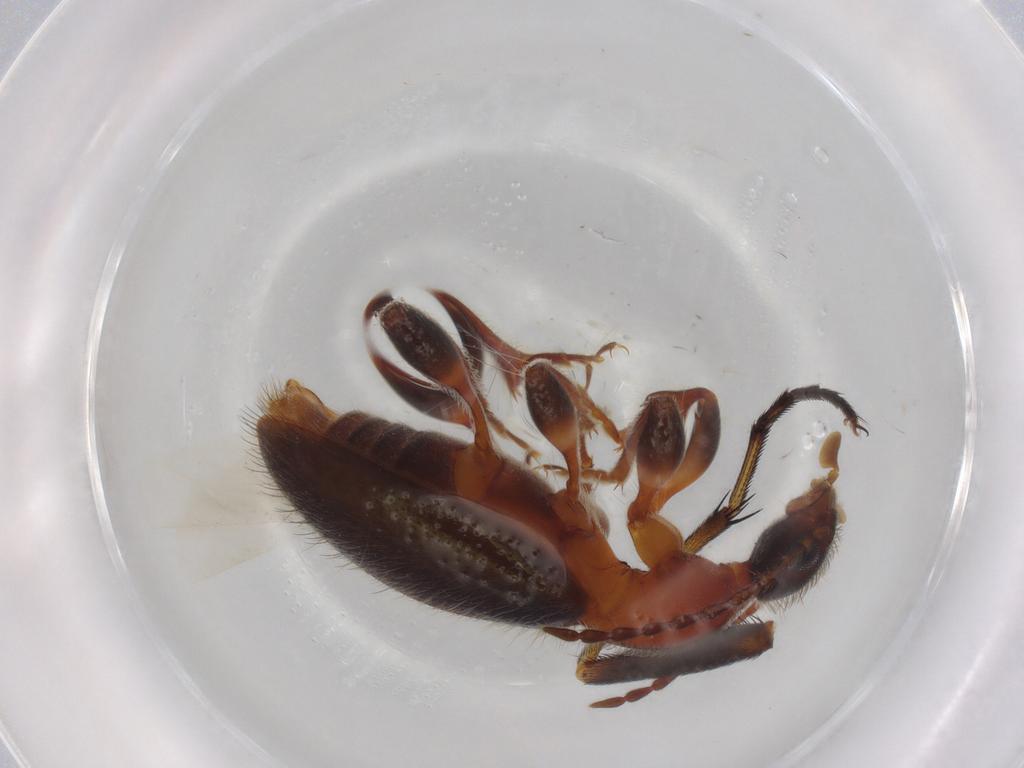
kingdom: Animalia
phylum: Arthropoda
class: Insecta
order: Coleoptera
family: Anthicidae
